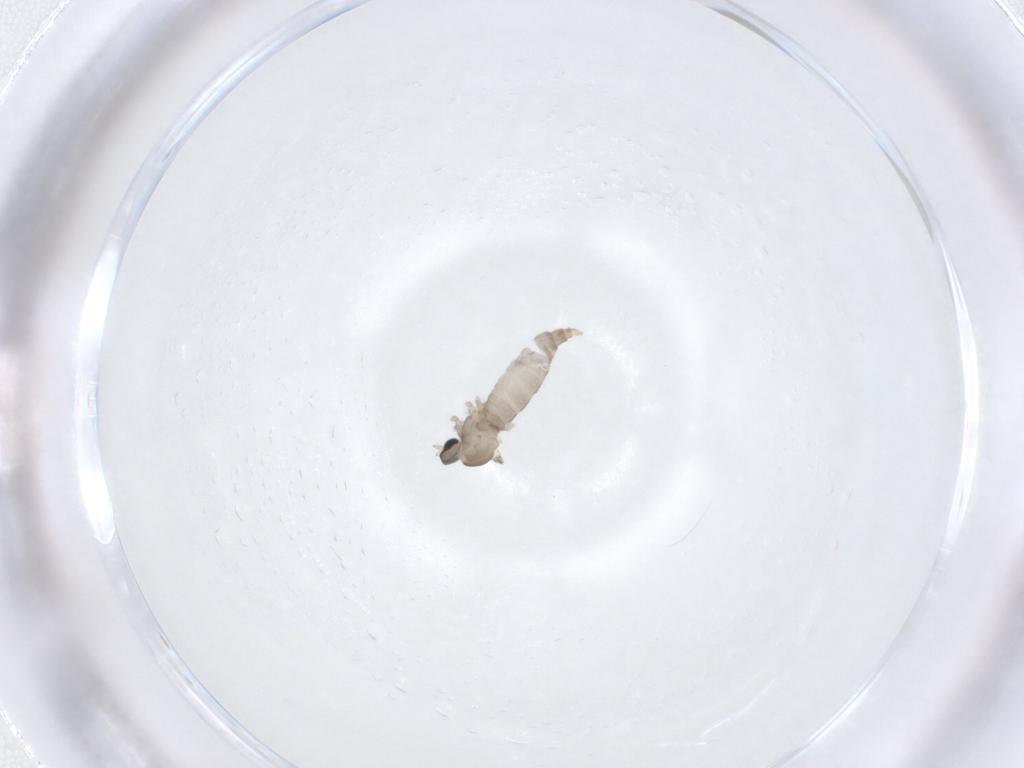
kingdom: Animalia
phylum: Arthropoda
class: Insecta
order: Diptera
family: Cecidomyiidae
